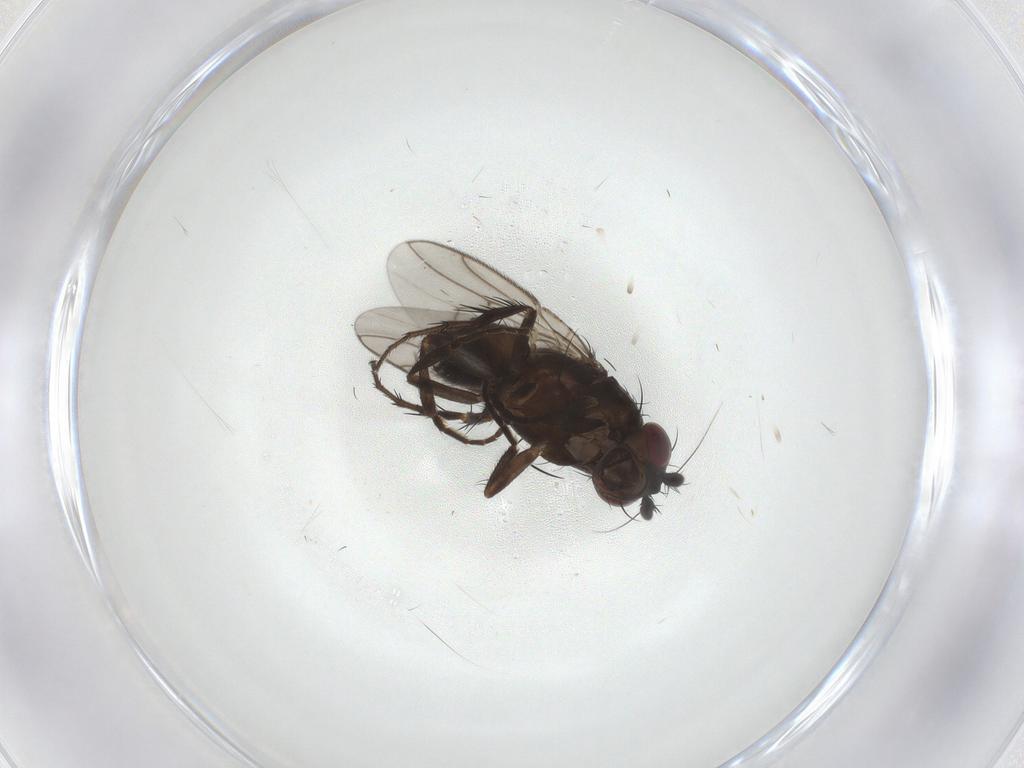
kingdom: Animalia
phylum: Arthropoda
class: Insecta
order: Diptera
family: Sphaeroceridae
